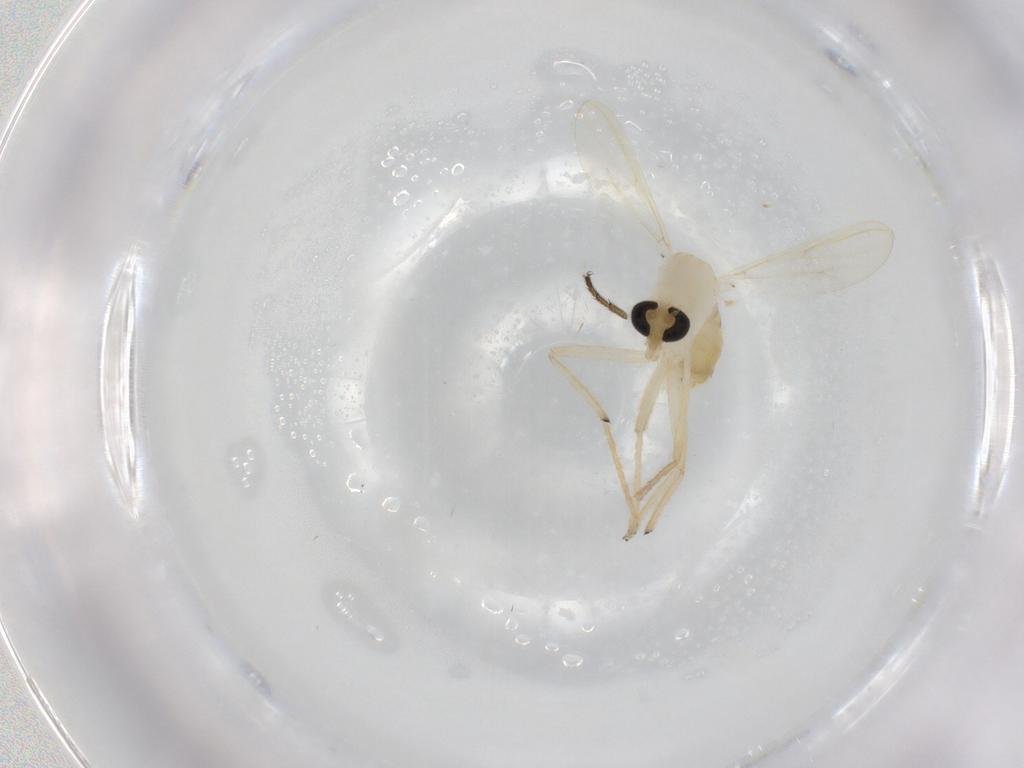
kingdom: Animalia
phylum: Arthropoda
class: Insecta
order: Diptera
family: Chironomidae
